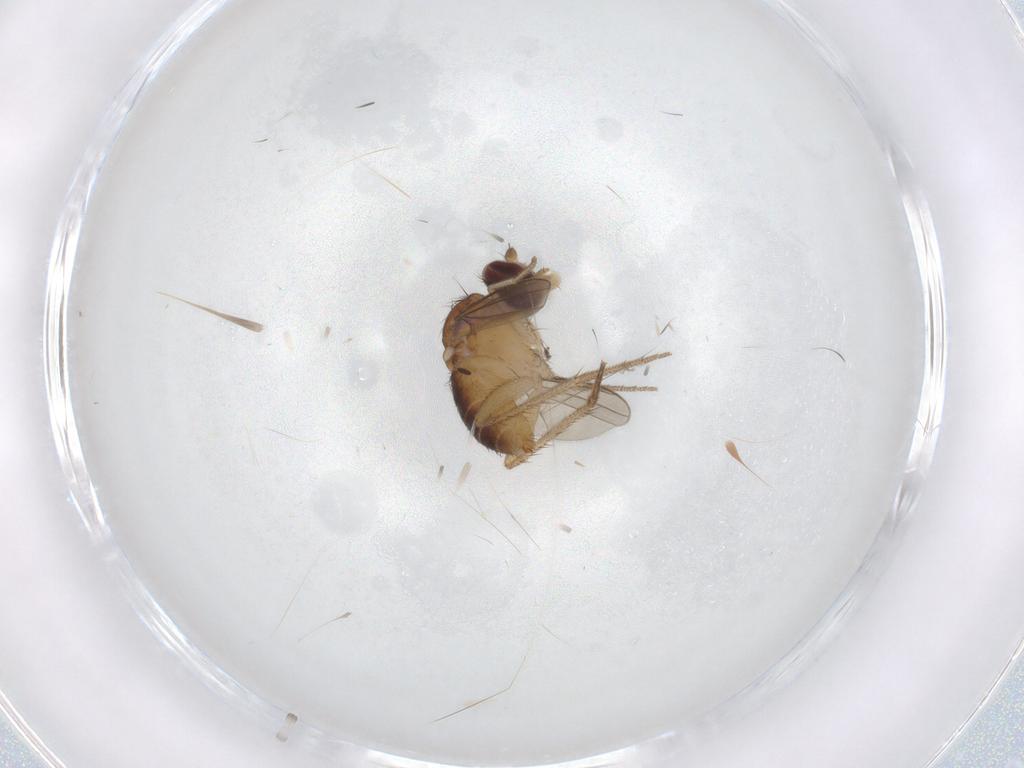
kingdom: Animalia
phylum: Arthropoda
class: Insecta
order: Diptera
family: Dolichopodidae
